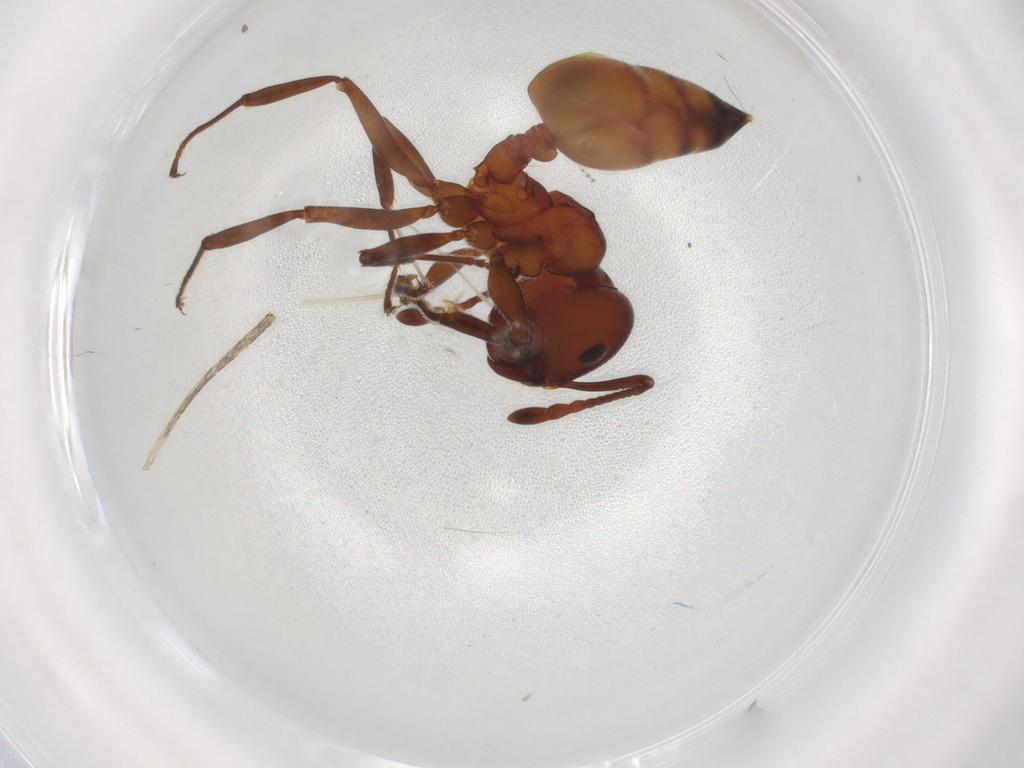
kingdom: Animalia
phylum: Arthropoda
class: Insecta
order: Hymenoptera
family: Formicidae
